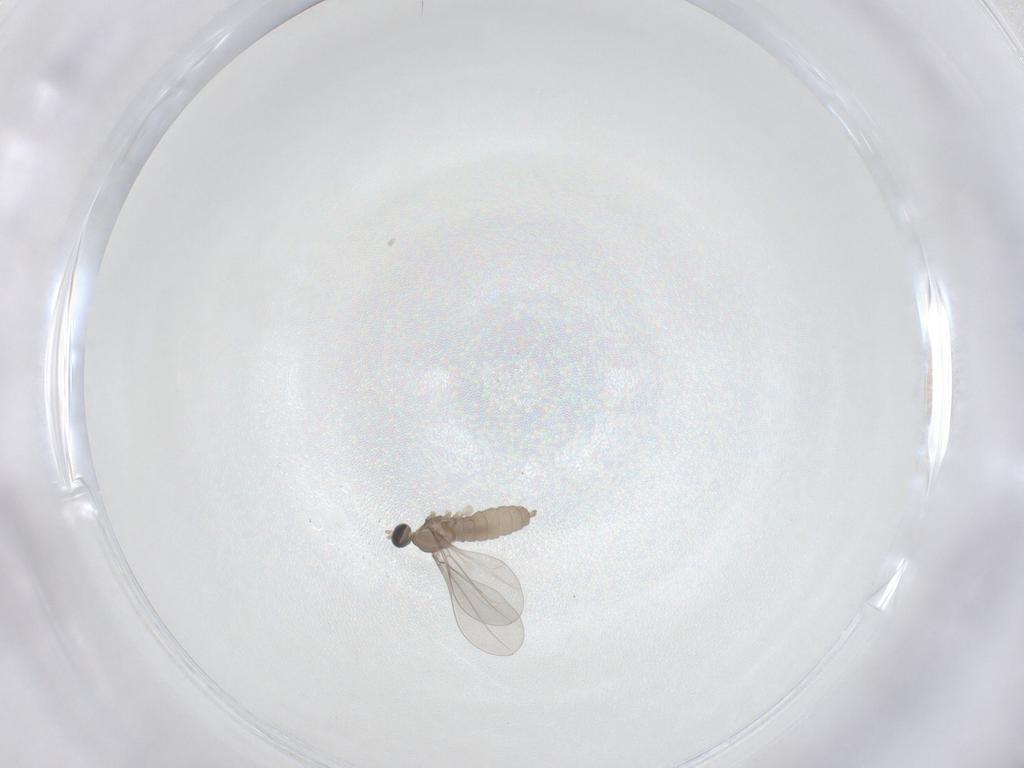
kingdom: Animalia
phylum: Arthropoda
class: Insecta
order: Diptera
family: Cecidomyiidae
